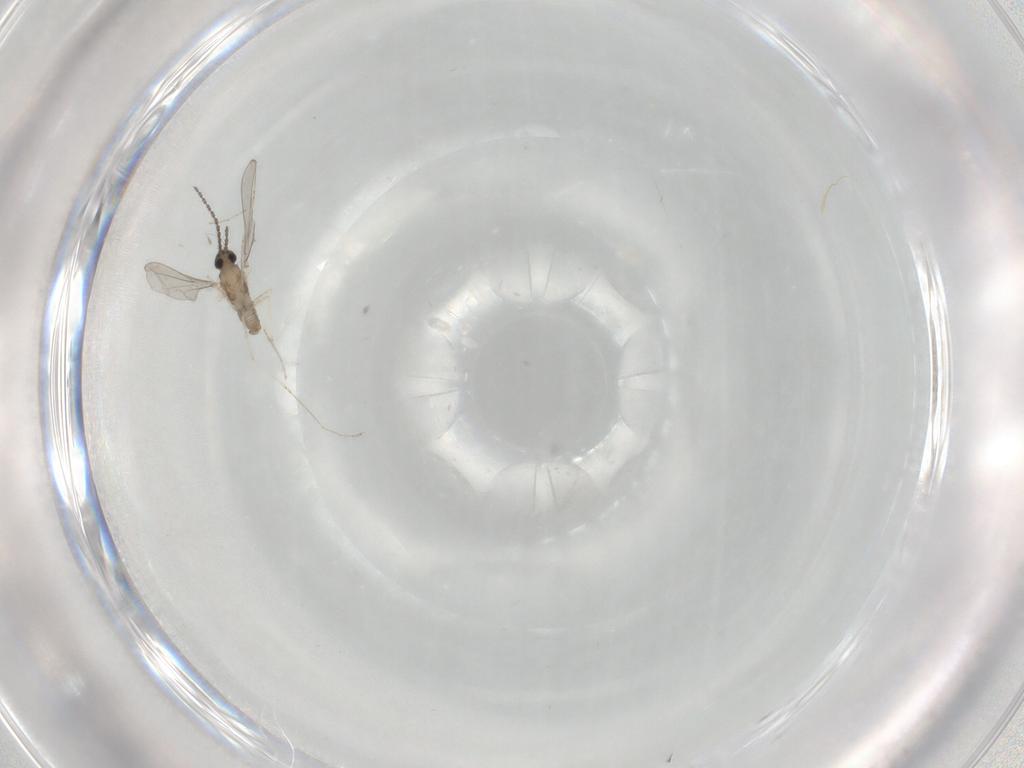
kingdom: Animalia
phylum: Arthropoda
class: Insecta
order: Diptera
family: Cecidomyiidae
